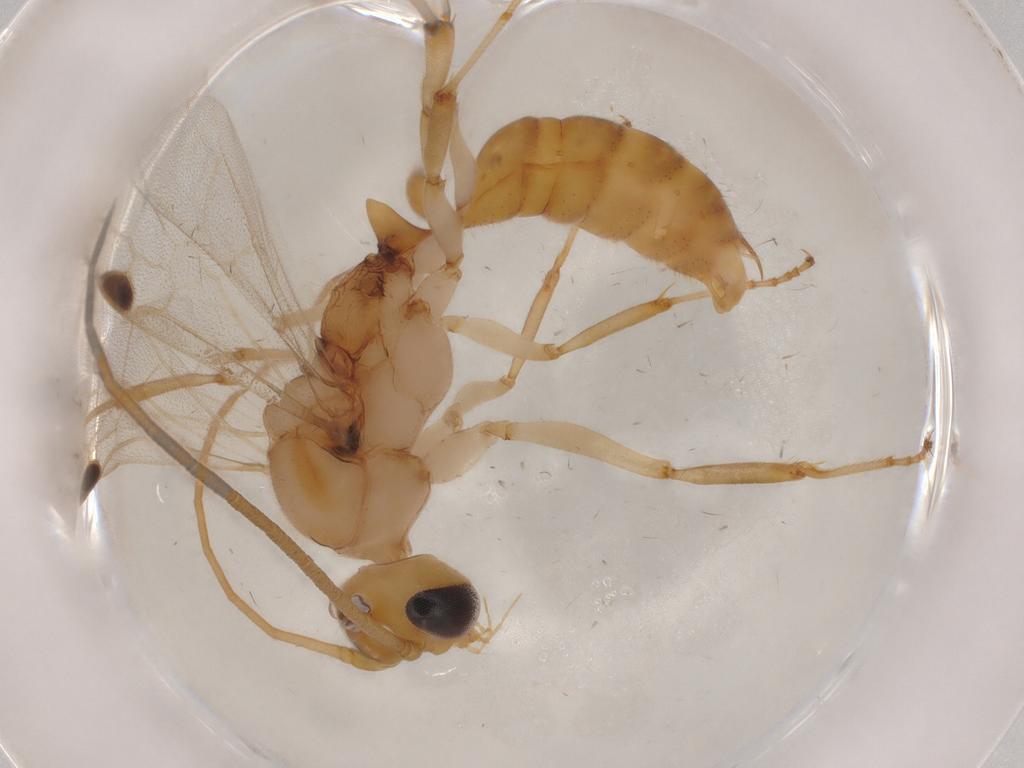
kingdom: Animalia
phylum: Arthropoda
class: Insecta
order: Hymenoptera
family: Formicidae
